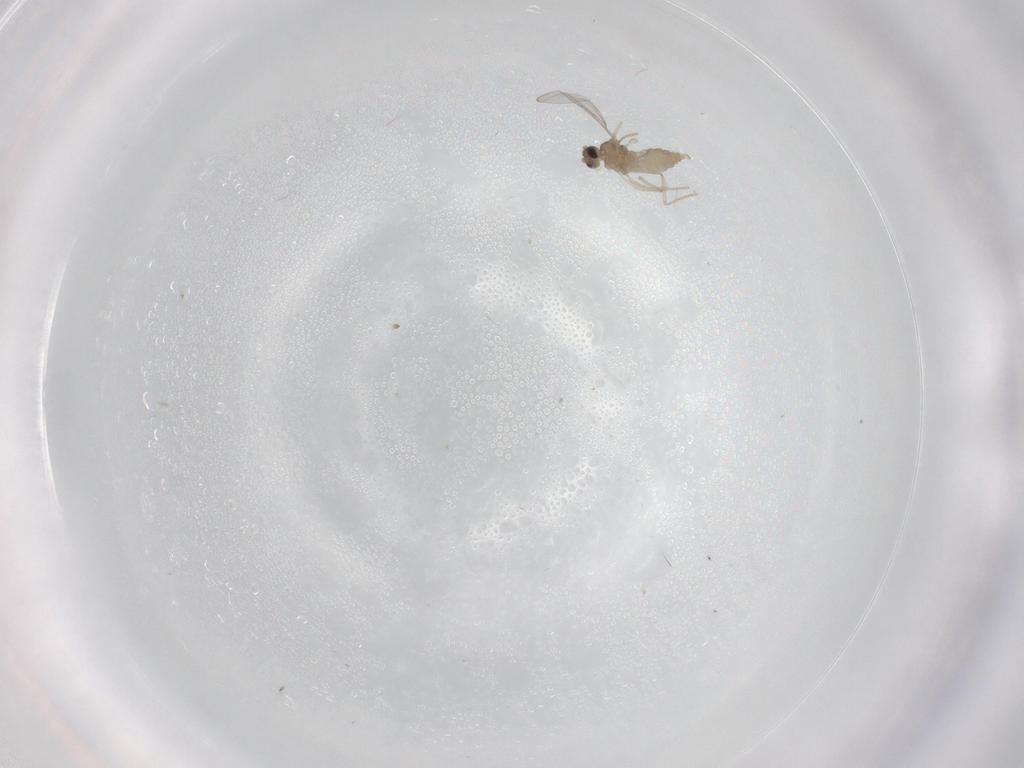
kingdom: Animalia
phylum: Arthropoda
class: Insecta
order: Diptera
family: Cecidomyiidae
